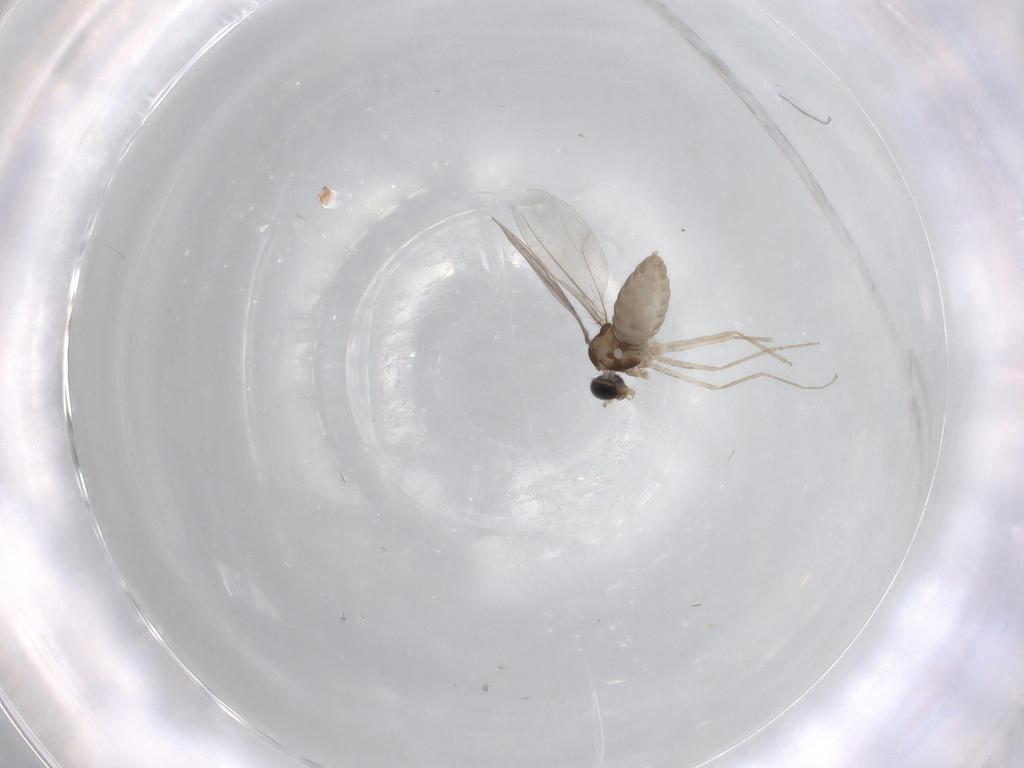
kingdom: Animalia
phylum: Arthropoda
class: Insecta
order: Diptera
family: Cecidomyiidae
